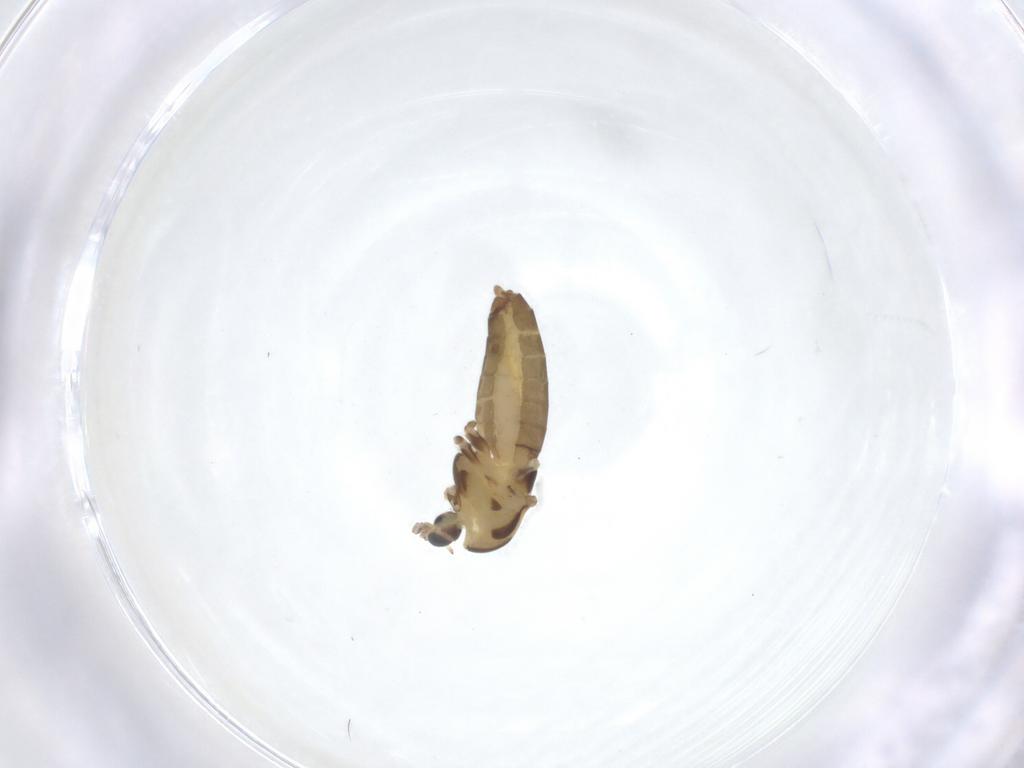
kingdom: Animalia
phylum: Arthropoda
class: Insecta
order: Diptera
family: Chironomidae
